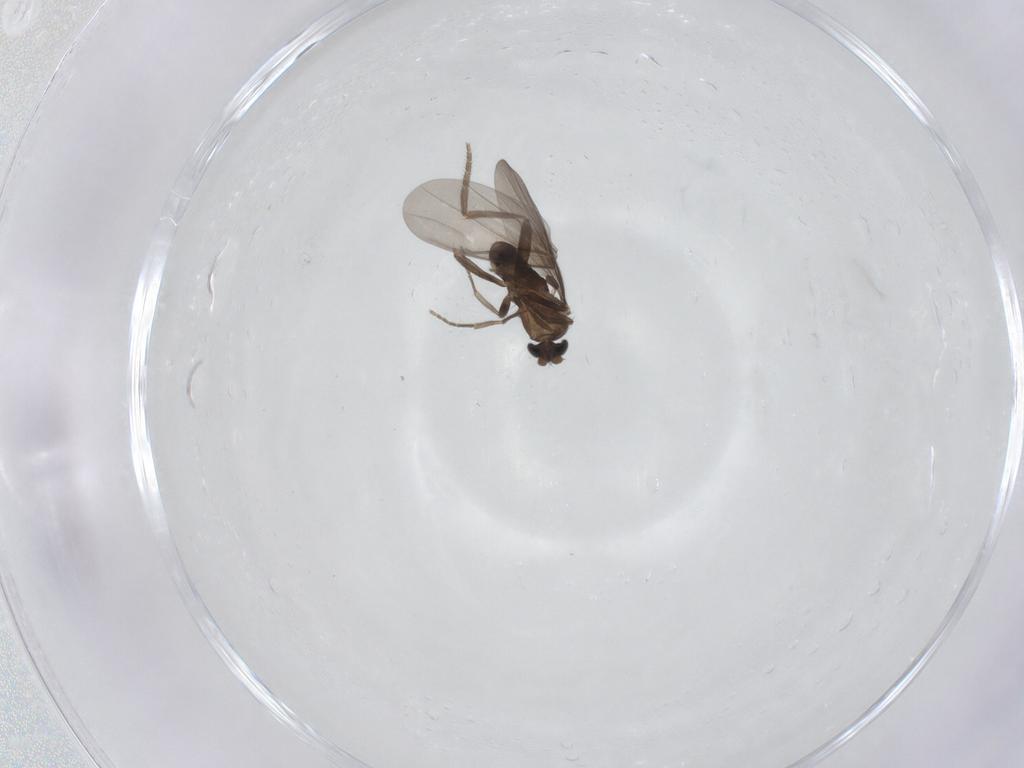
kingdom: Animalia
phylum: Arthropoda
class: Insecta
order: Diptera
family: Phoridae
